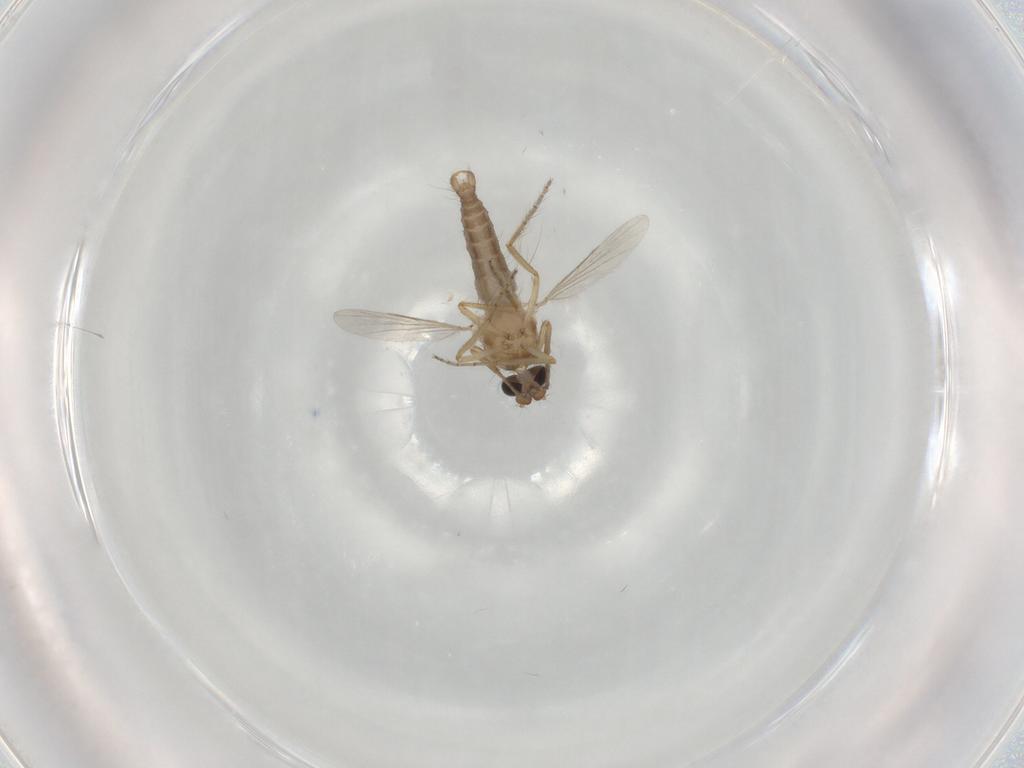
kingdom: Animalia
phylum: Arthropoda
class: Insecta
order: Diptera
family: Ceratopogonidae
